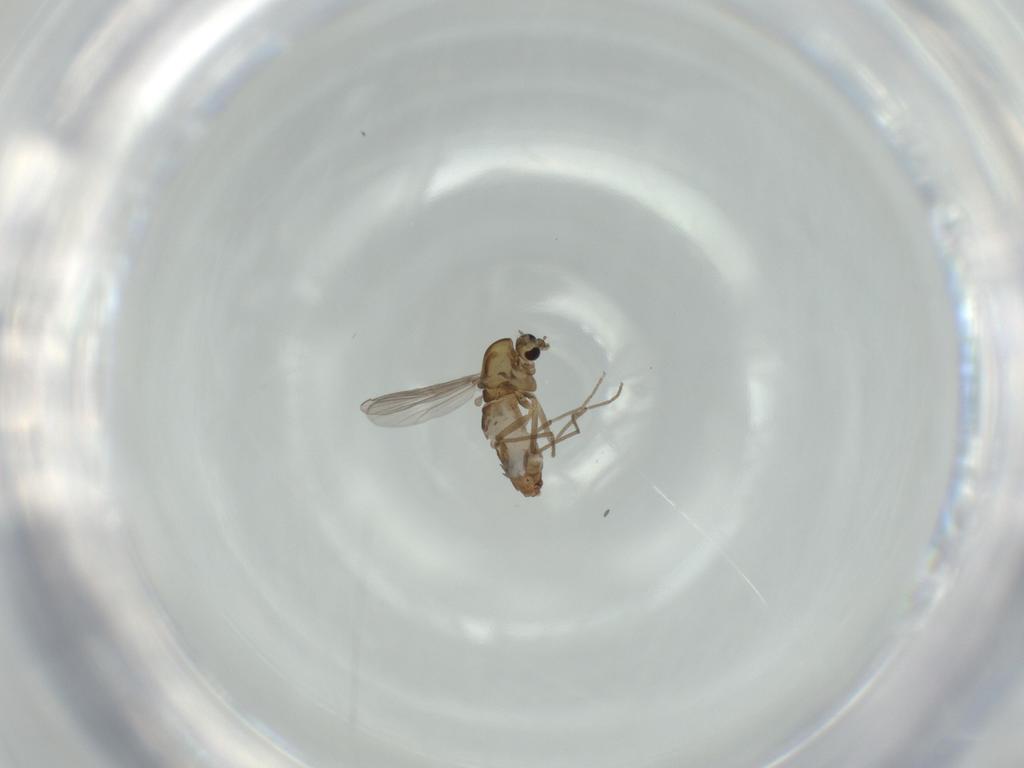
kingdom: Animalia
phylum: Arthropoda
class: Insecta
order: Diptera
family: Chironomidae
